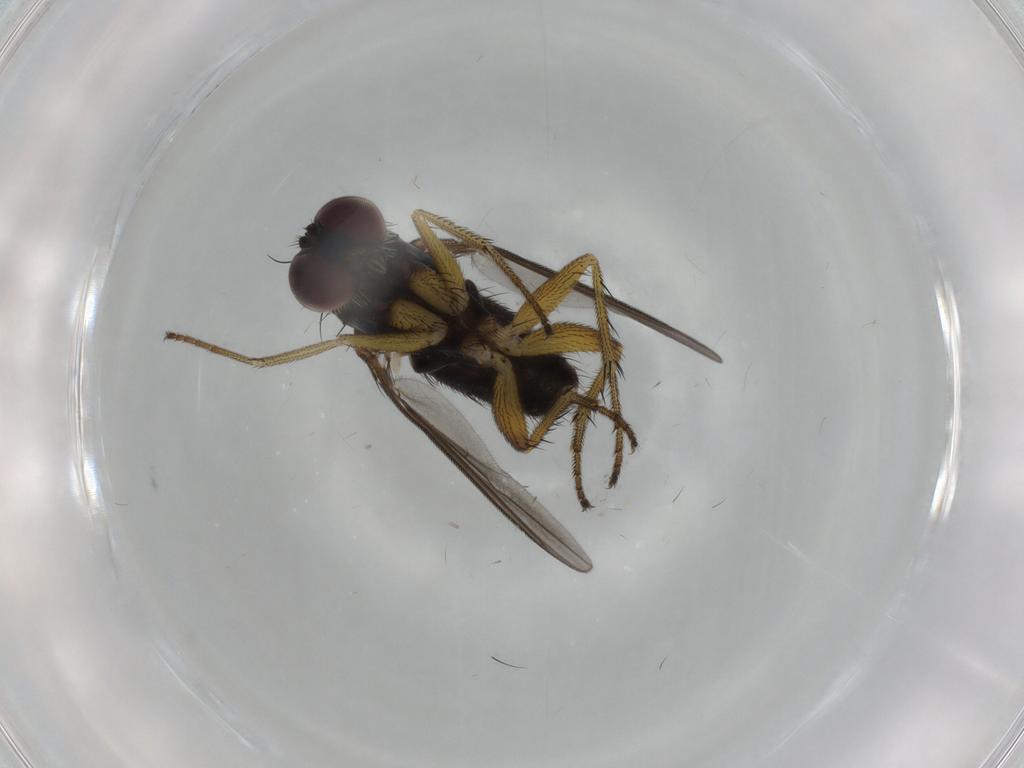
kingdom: Animalia
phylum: Arthropoda
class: Insecta
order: Diptera
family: Dolichopodidae
